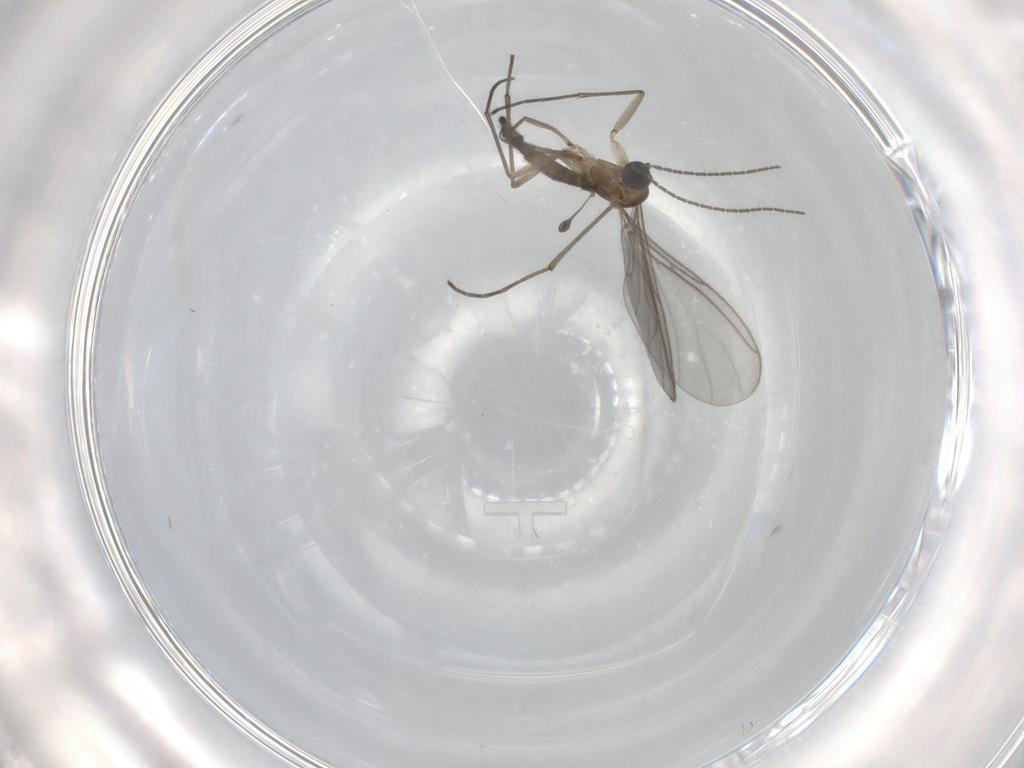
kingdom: Animalia
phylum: Arthropoda
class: Insecta
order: Diptera
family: Sciaridae
